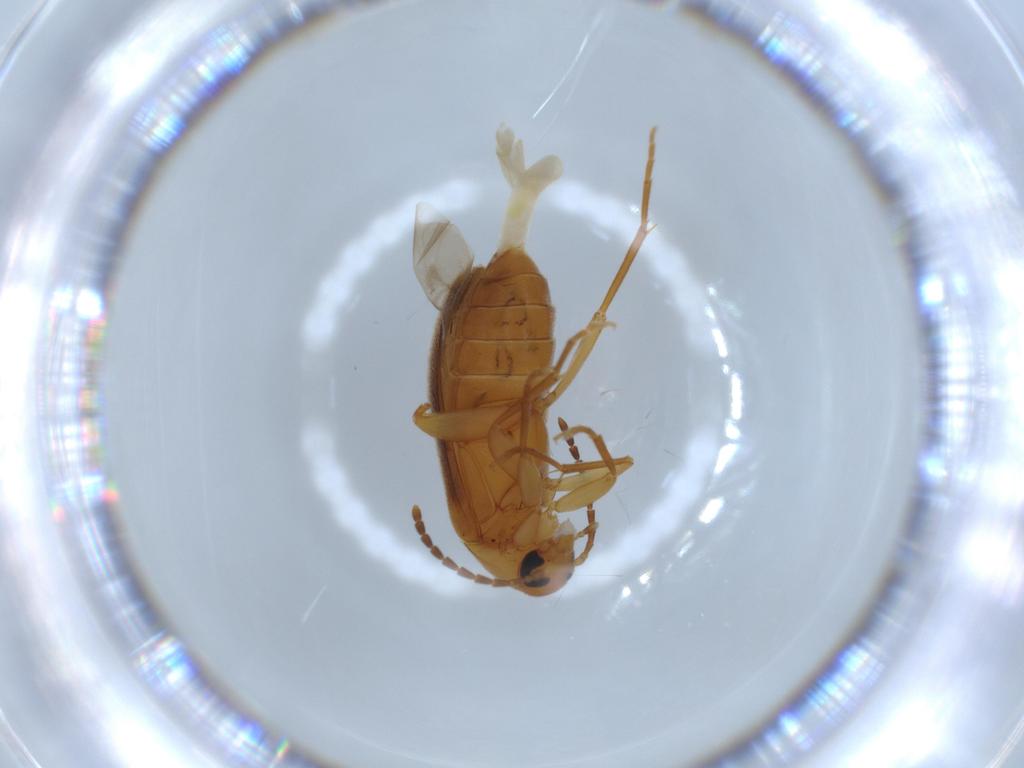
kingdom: Animalia
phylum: Arthropoda
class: Insecta
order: Coleoptera
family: Scraptiidae
